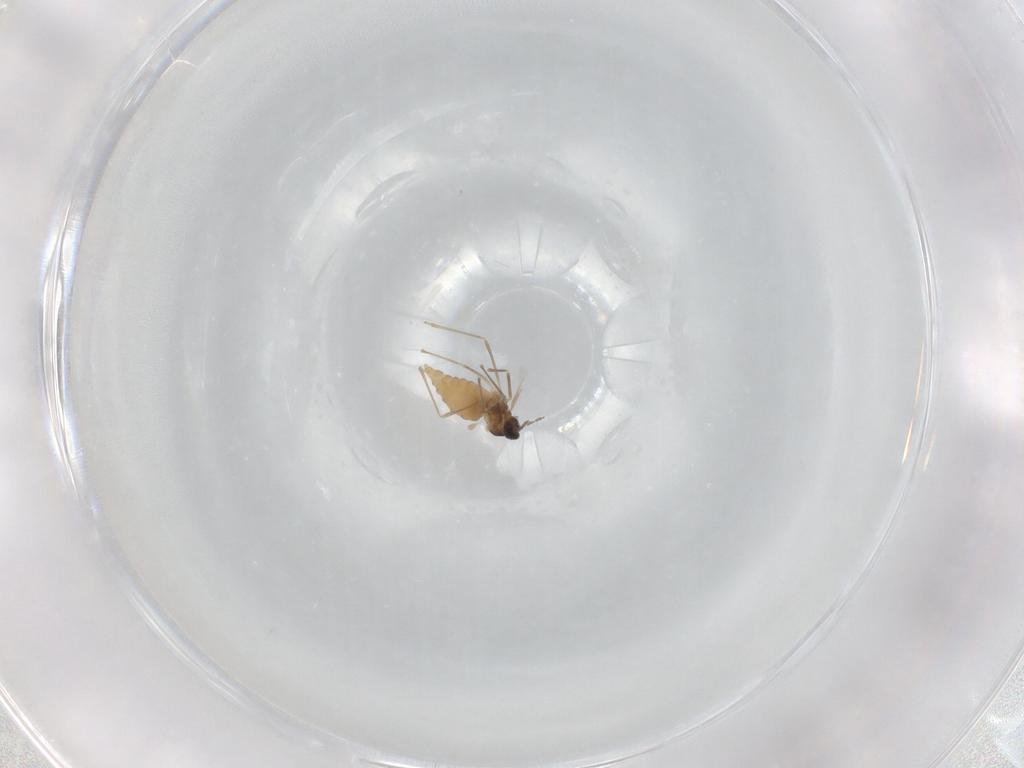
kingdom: Animalia
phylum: Arthropoda
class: Insecta
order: Diptera
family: Cecidomyiidae
